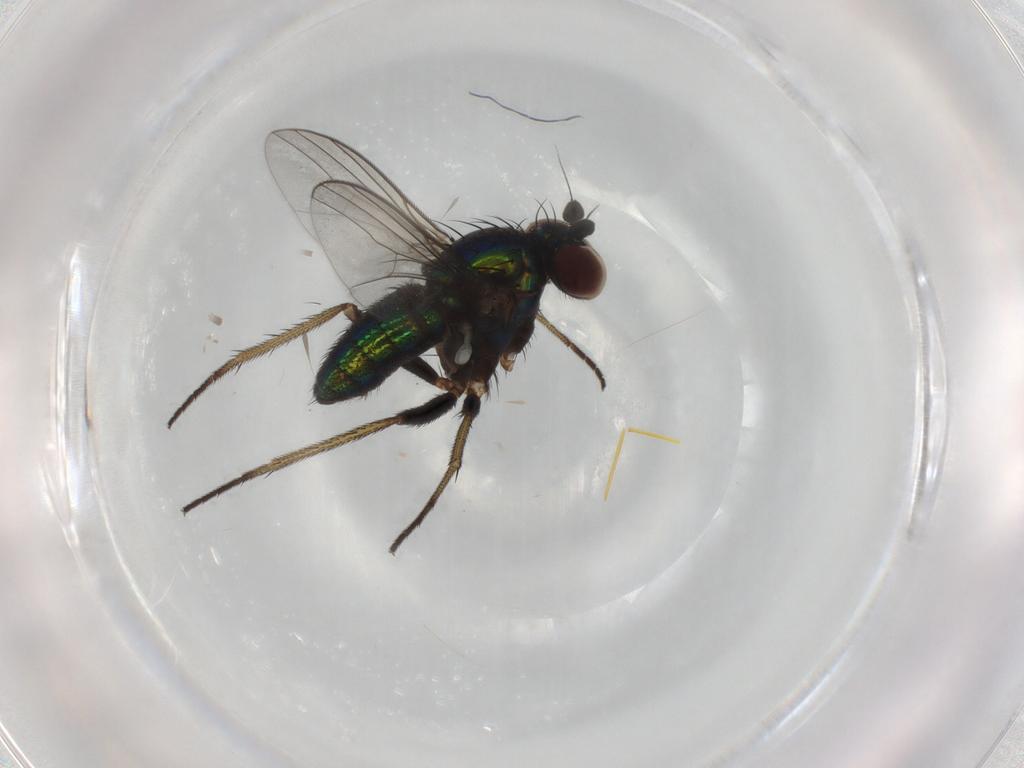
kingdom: Animalia
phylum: Arthropoda
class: Insecta
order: Diptera
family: Dolichopodidae
